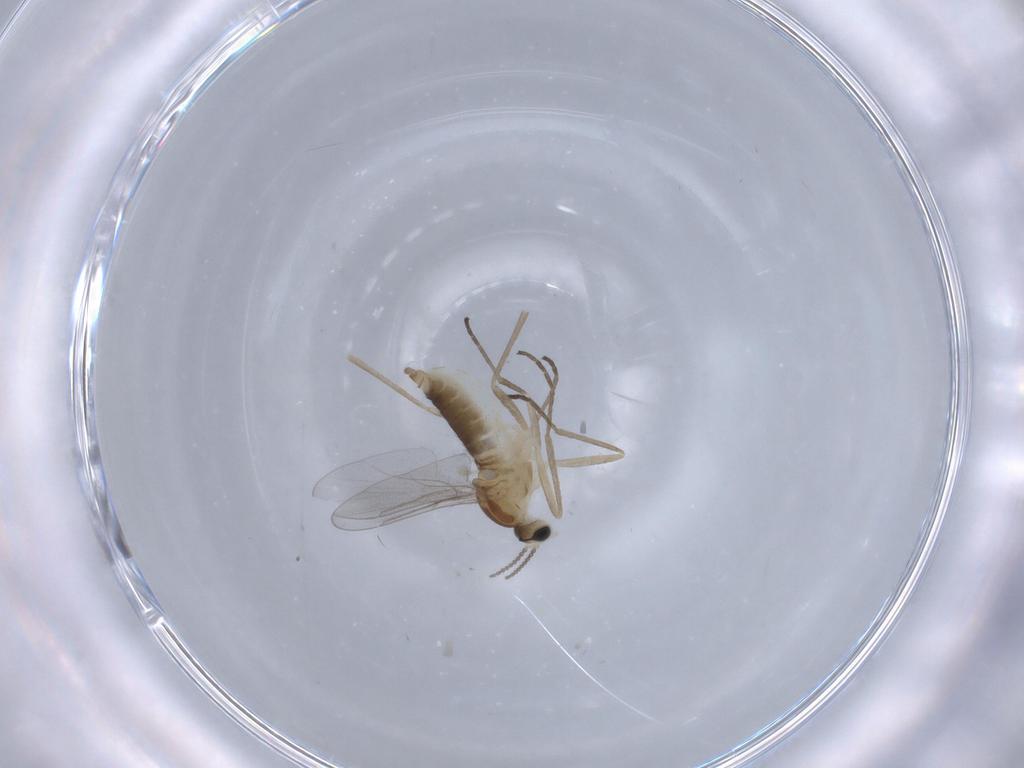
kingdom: Animalia
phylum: Arthropoda
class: Insecta
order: Diptera
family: Cecidomyiidae
